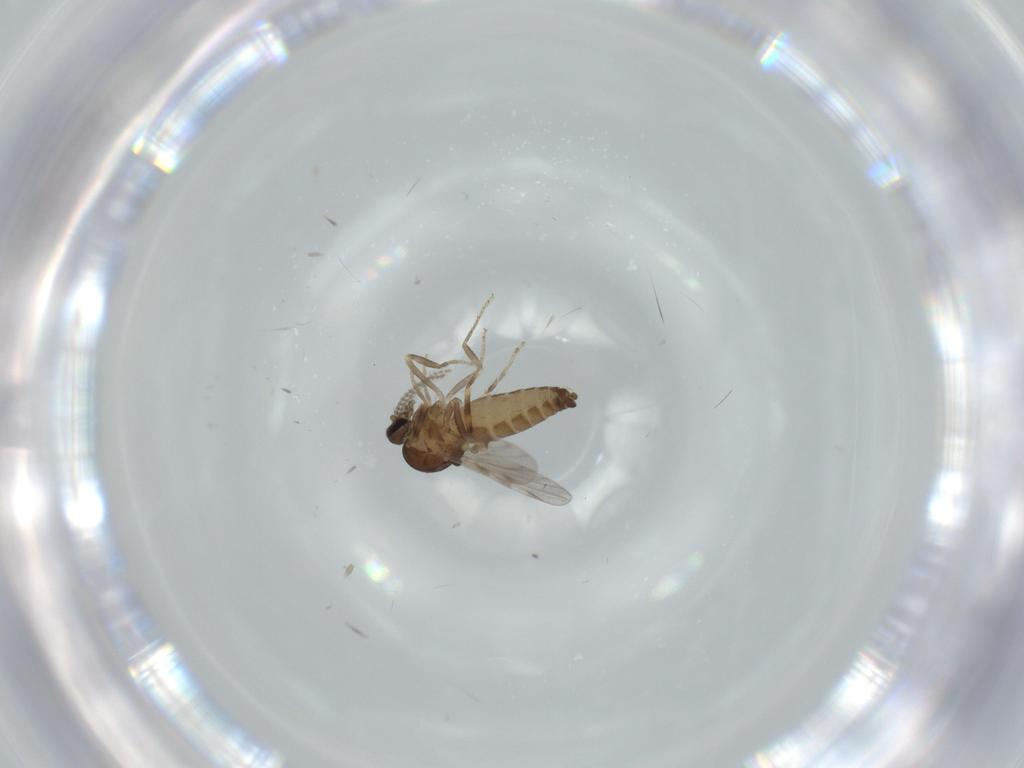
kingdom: Animalia
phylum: Arthropoda
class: Insecta
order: Diptera
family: Ceratopogonidae
